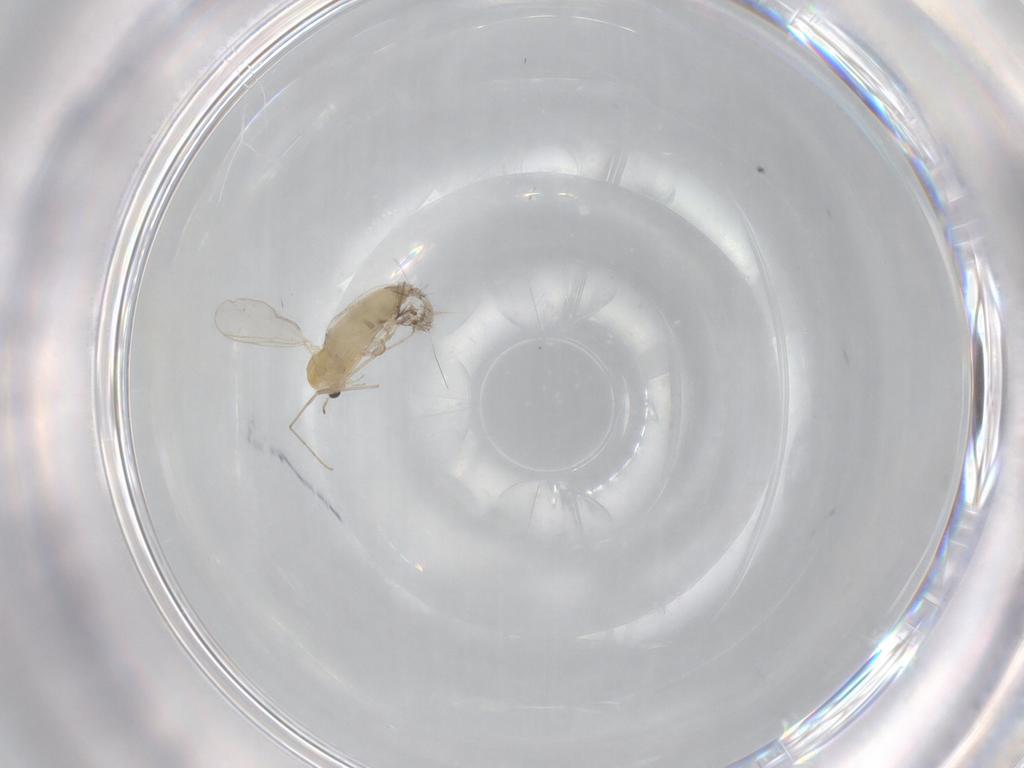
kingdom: Animalia
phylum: Arthropoda
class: Insecta
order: Diptera
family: Chironomidae
